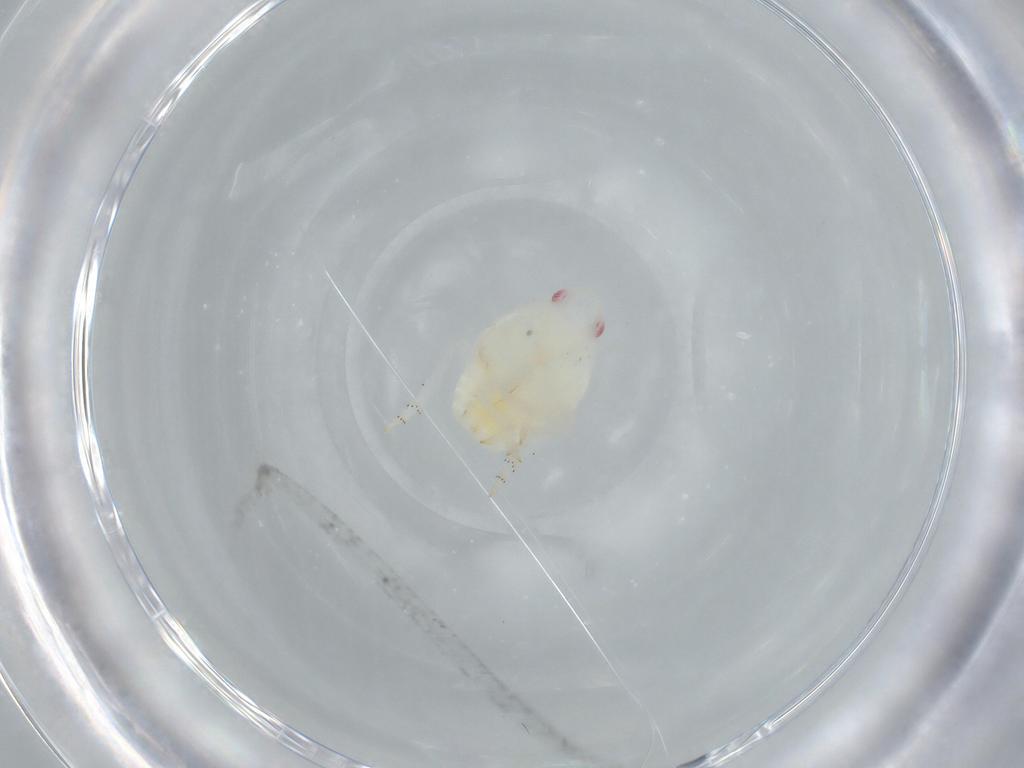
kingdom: Animalia
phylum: Arthropoda
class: Insecta
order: Hemiptera
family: Flatidae
